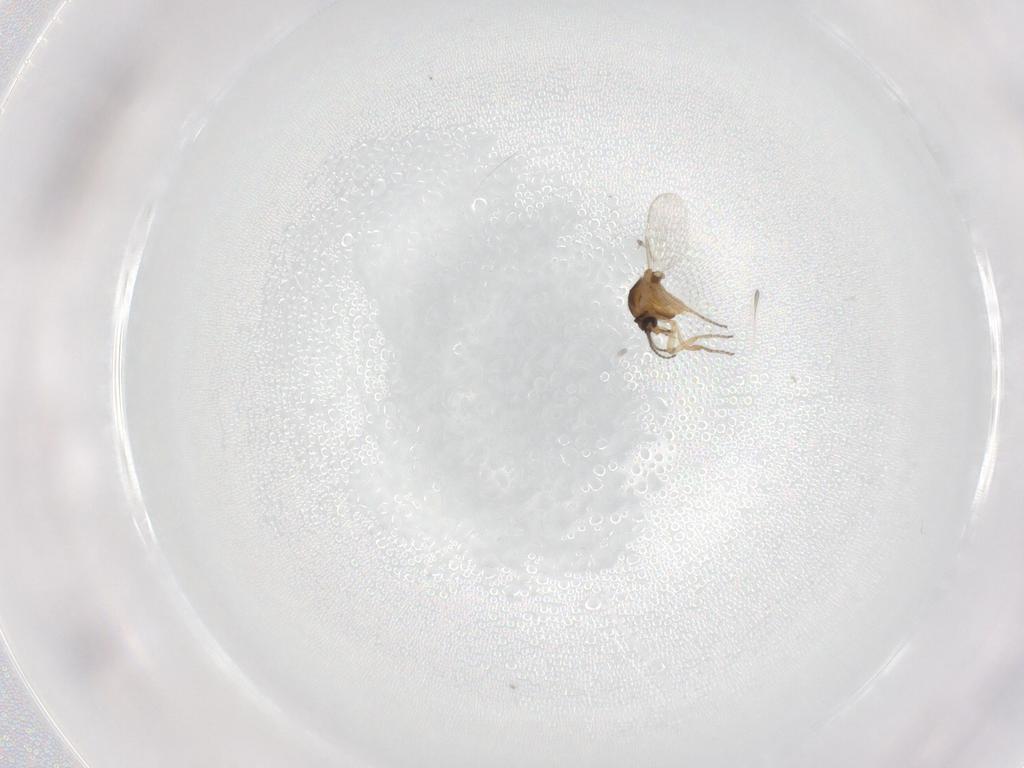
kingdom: Animalia
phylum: Arthropoda
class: Insecta
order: Diptera
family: Ceratopogonidae
